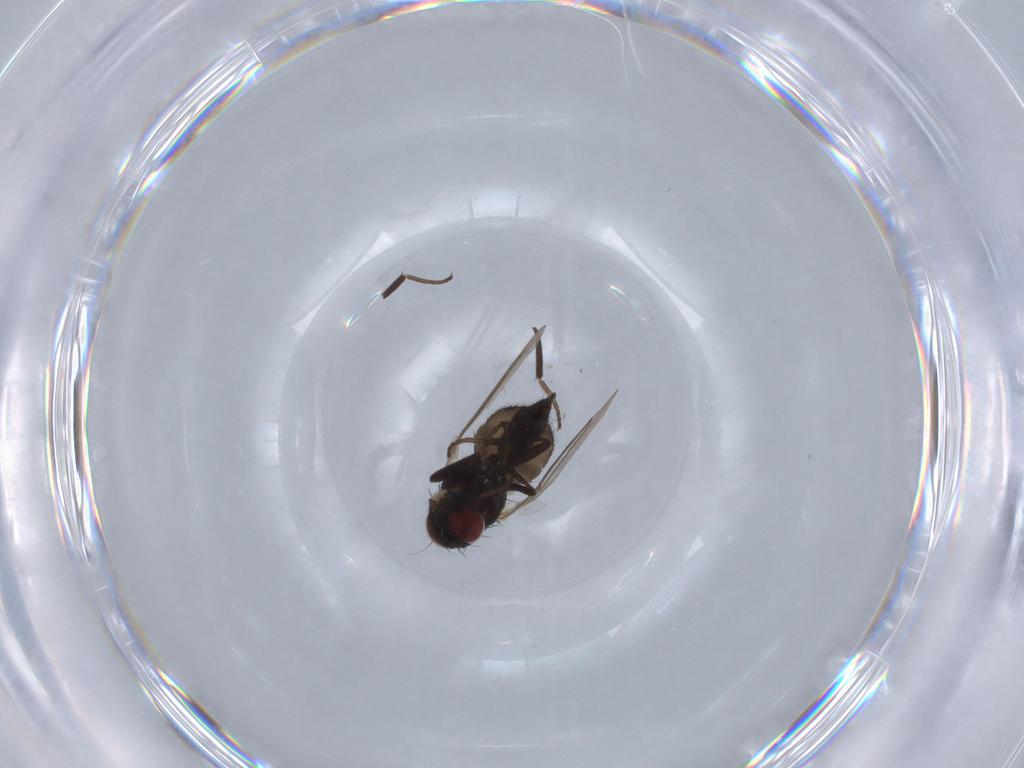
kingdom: Animalia
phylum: Arthropoda
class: Insecta
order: Diptera
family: Agromyzidae
